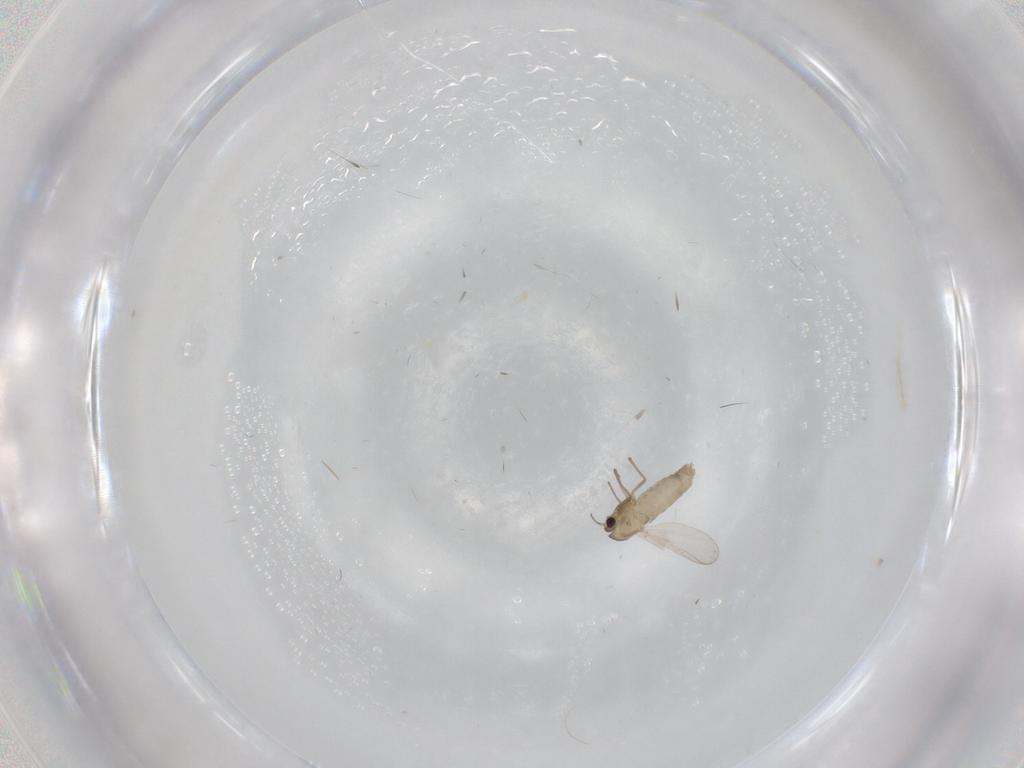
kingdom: Animalia
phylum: Arthropoda
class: Insecta
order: Diptera
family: Chironomidae
